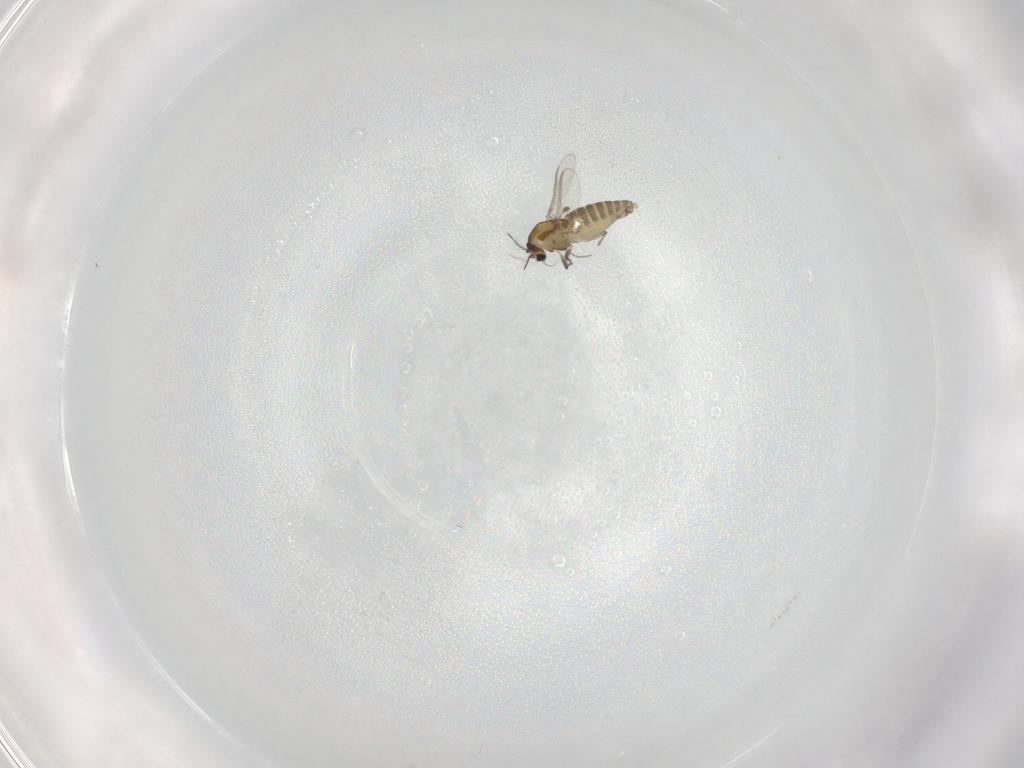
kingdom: Animalia
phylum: Arthropoda
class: Insecta
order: Diptera
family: Chironomidae
